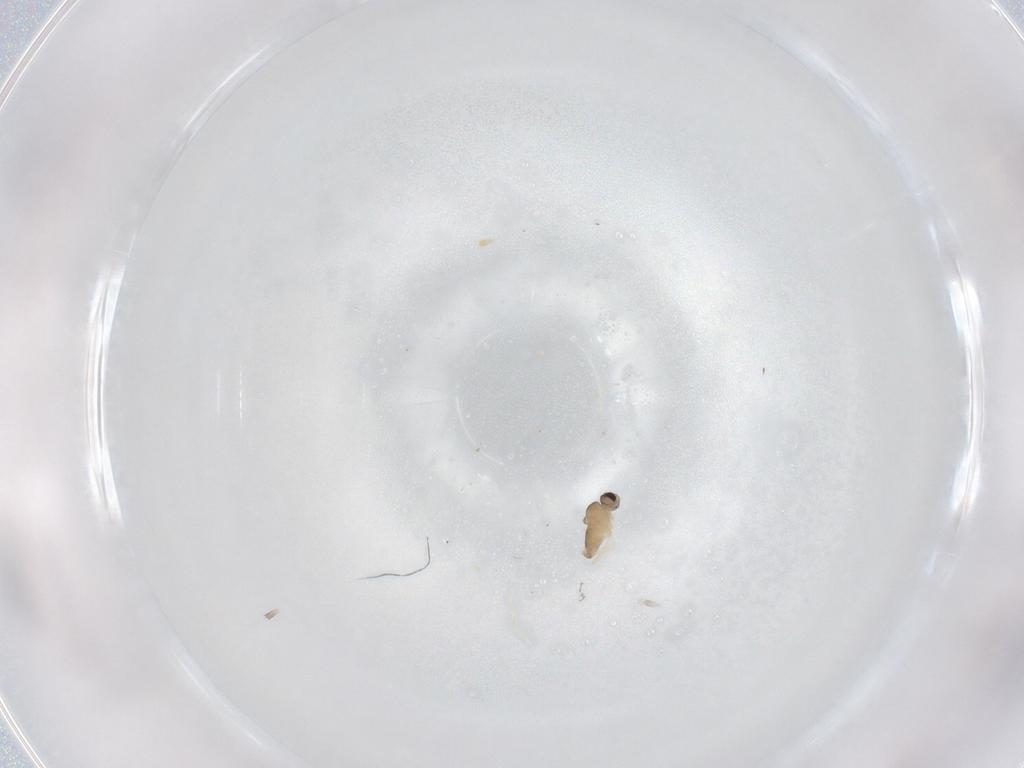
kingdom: Animalia
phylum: Arthropoda
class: Insecta
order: Diptera
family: Cecidomyiidae
